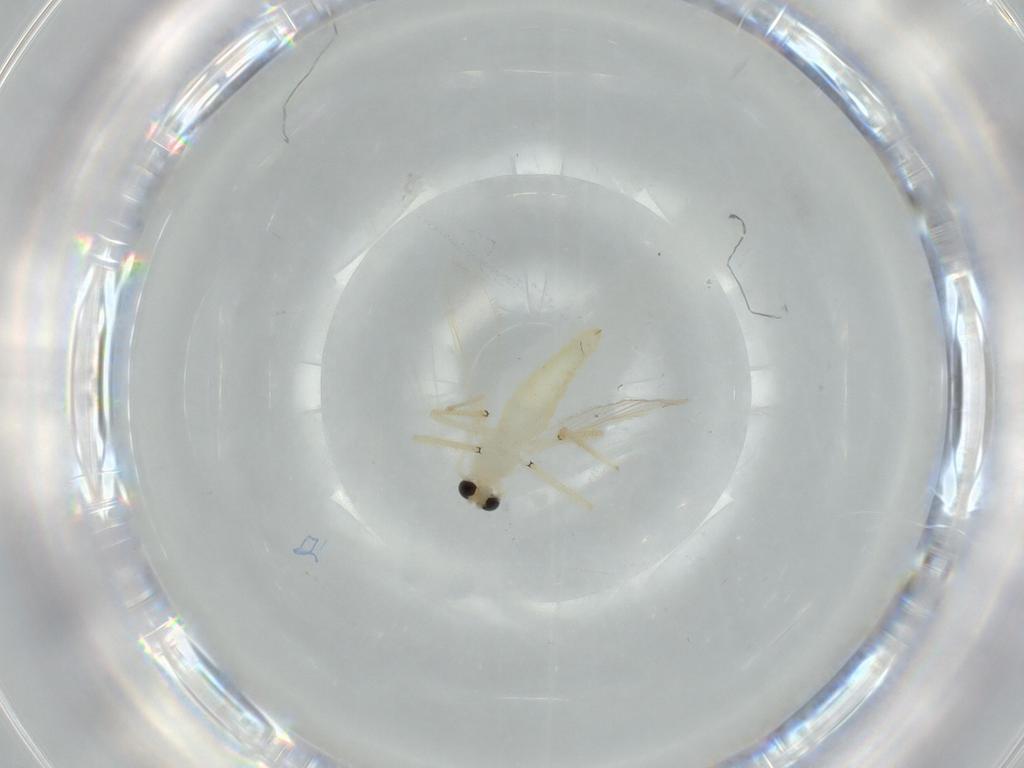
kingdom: Animalia
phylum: Arthropoda
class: Insecta
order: Diptera
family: Chironomidae
